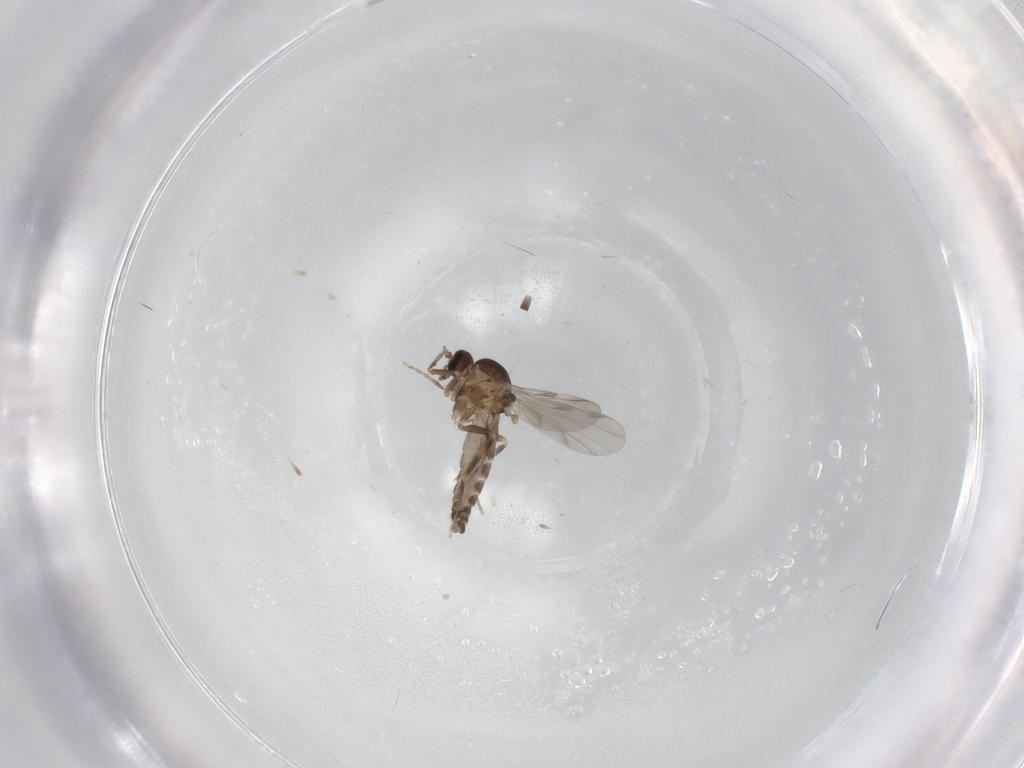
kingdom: Animalia
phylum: Arthropoda
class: Insecta
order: Diptera
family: Ceratopogonidae
